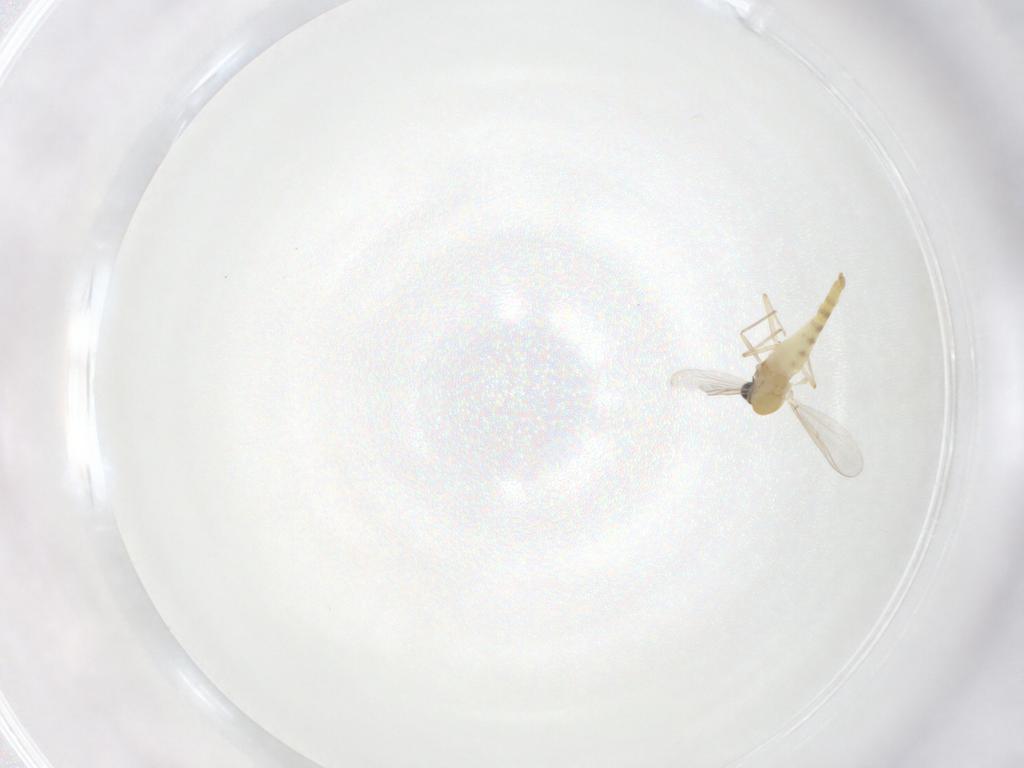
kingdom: Animalia
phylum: Arthropoda
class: Insecta
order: Diptera
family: Chironomidae
